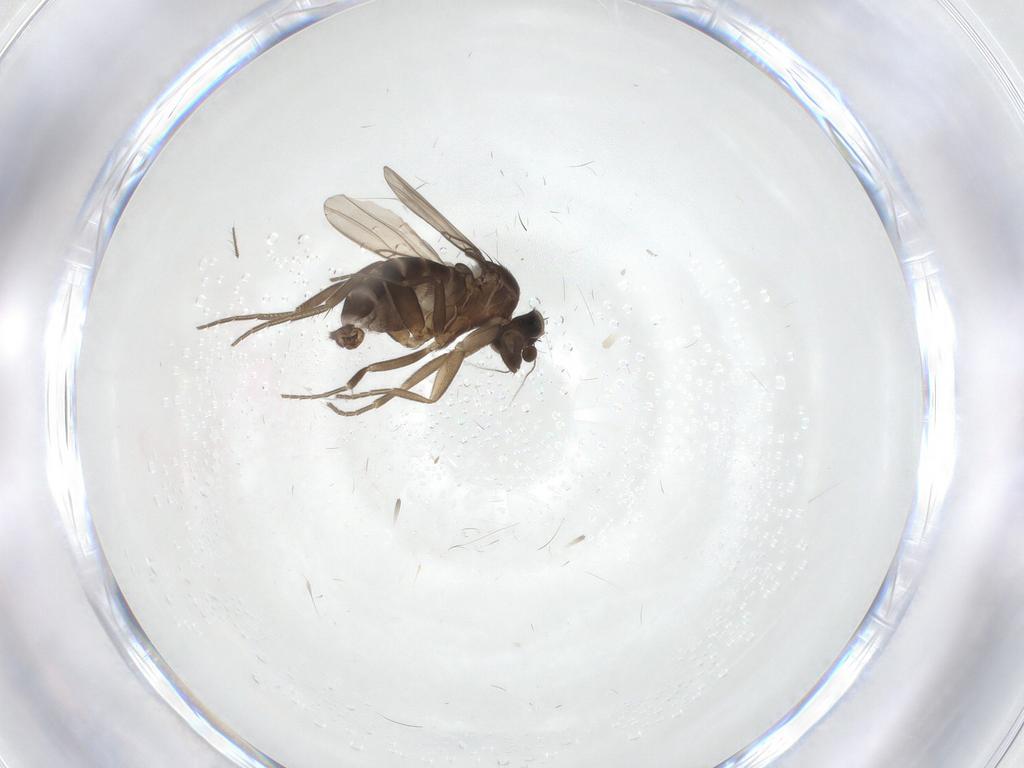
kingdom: Animalia
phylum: Arthropoda
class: Insecta
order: Diptera
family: Phoridae
